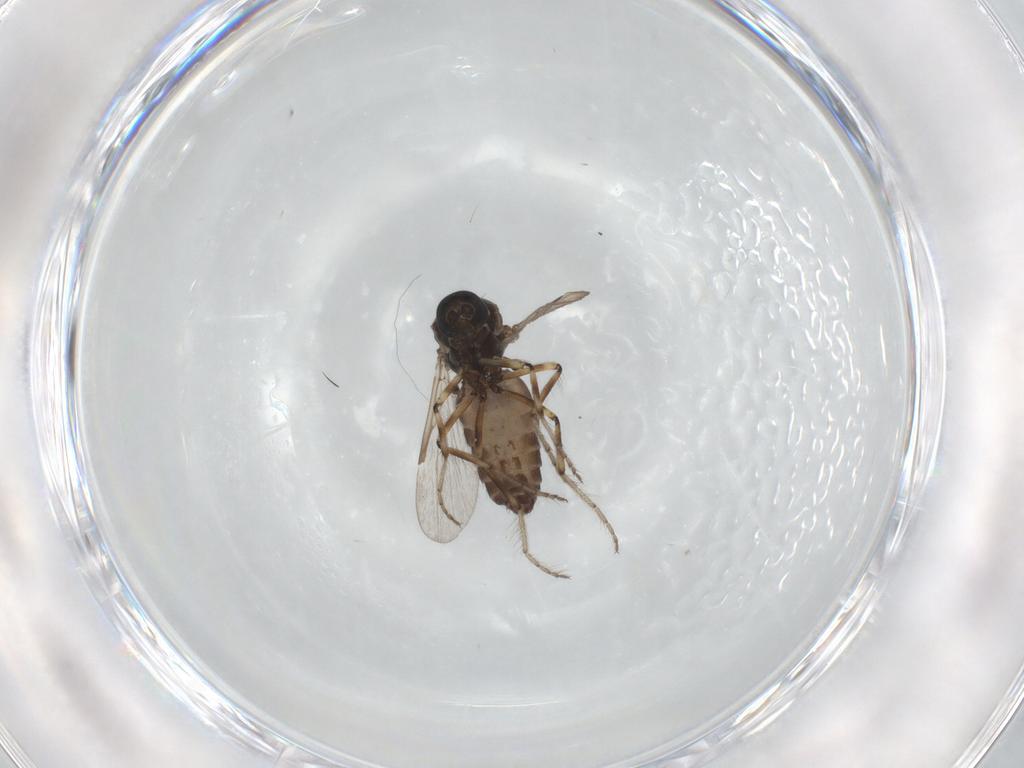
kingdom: Animalia
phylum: Arthropoda
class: Insecta
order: Diptera
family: Ceratopogonidae
